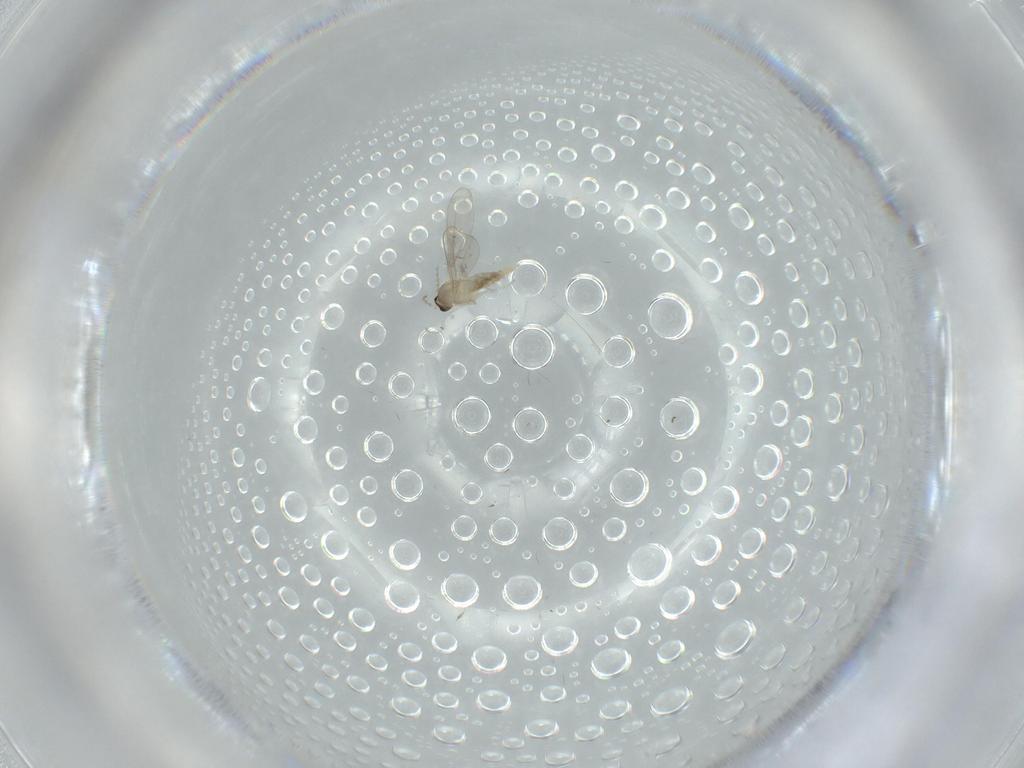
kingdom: Animalia
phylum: Arthropoda
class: Insecta
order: Diptera
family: Cecidomyiidae
